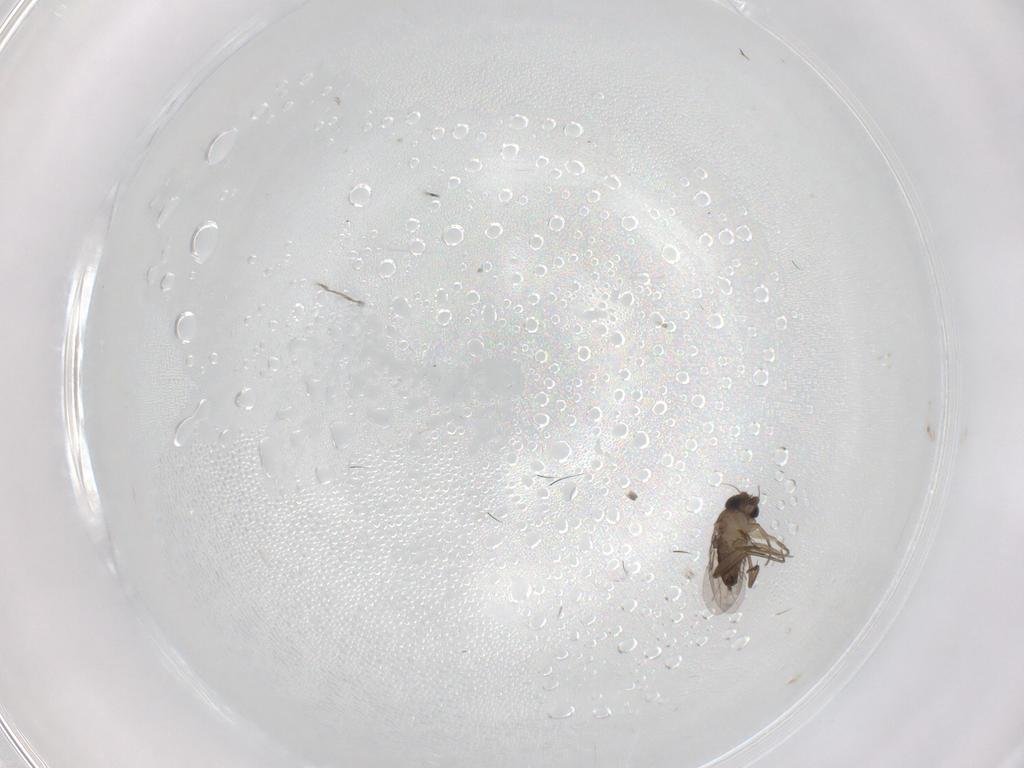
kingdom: Animalia
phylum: Arthropoda
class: Insecta
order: Diptera
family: Phoridae
